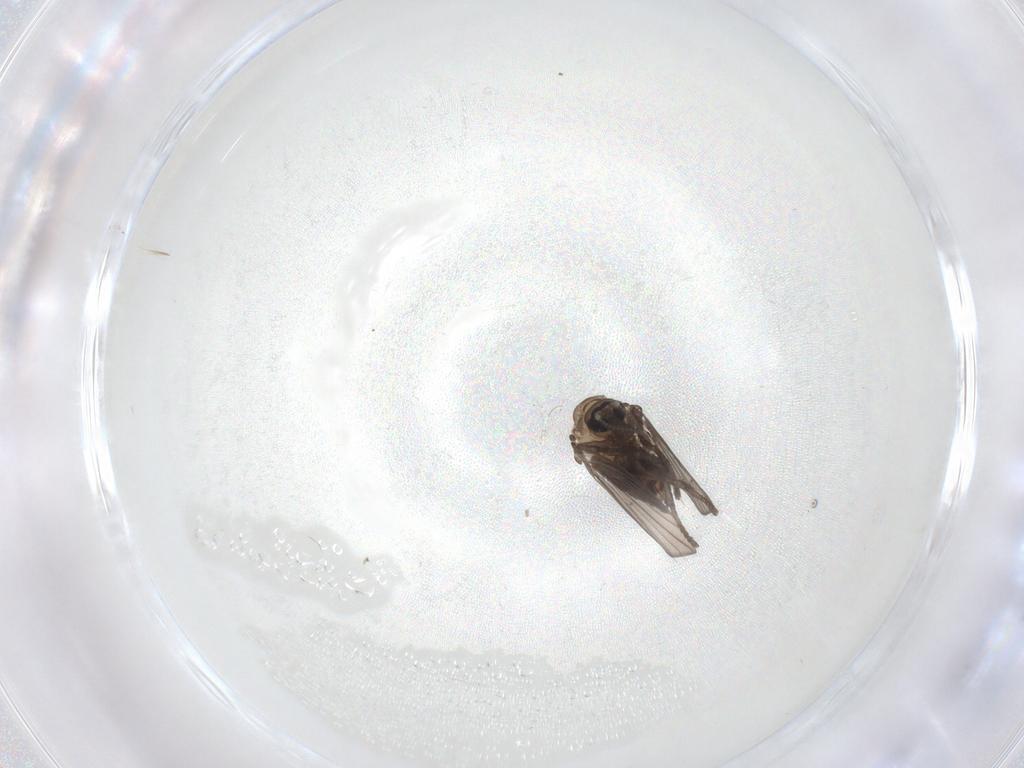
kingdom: Animalia
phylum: Arthropoda
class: Insecta
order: Diptera
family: Psychodidae
